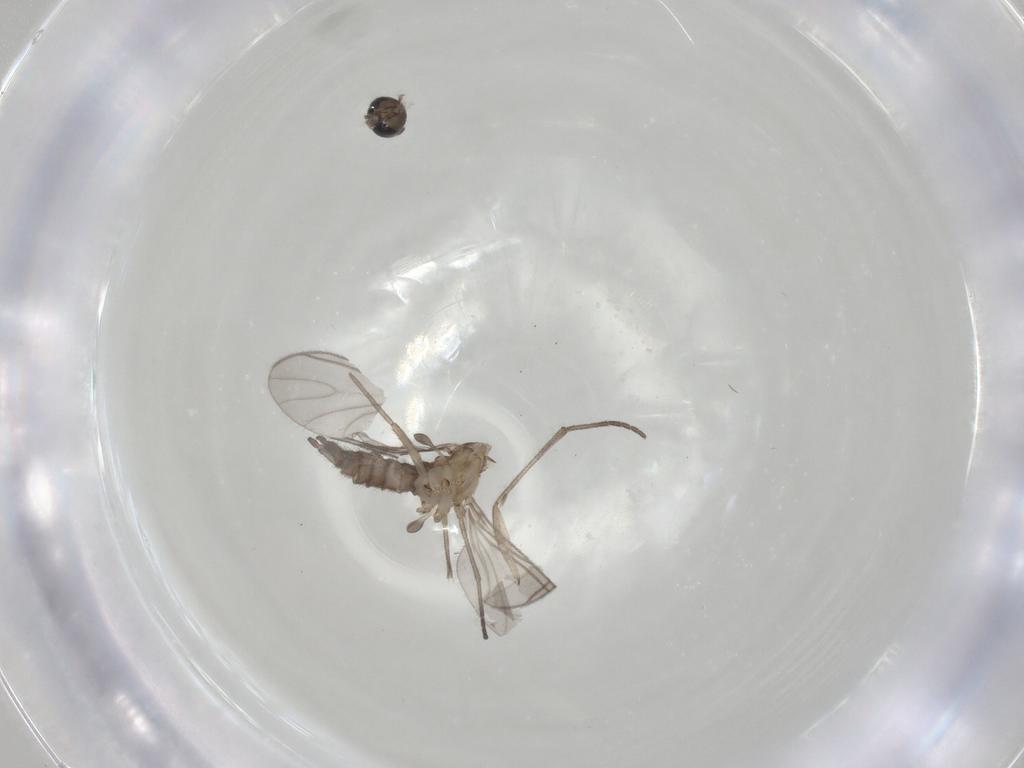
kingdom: Animalia
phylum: Arthropoda
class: Insecta
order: Diptera
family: Sciaridae
